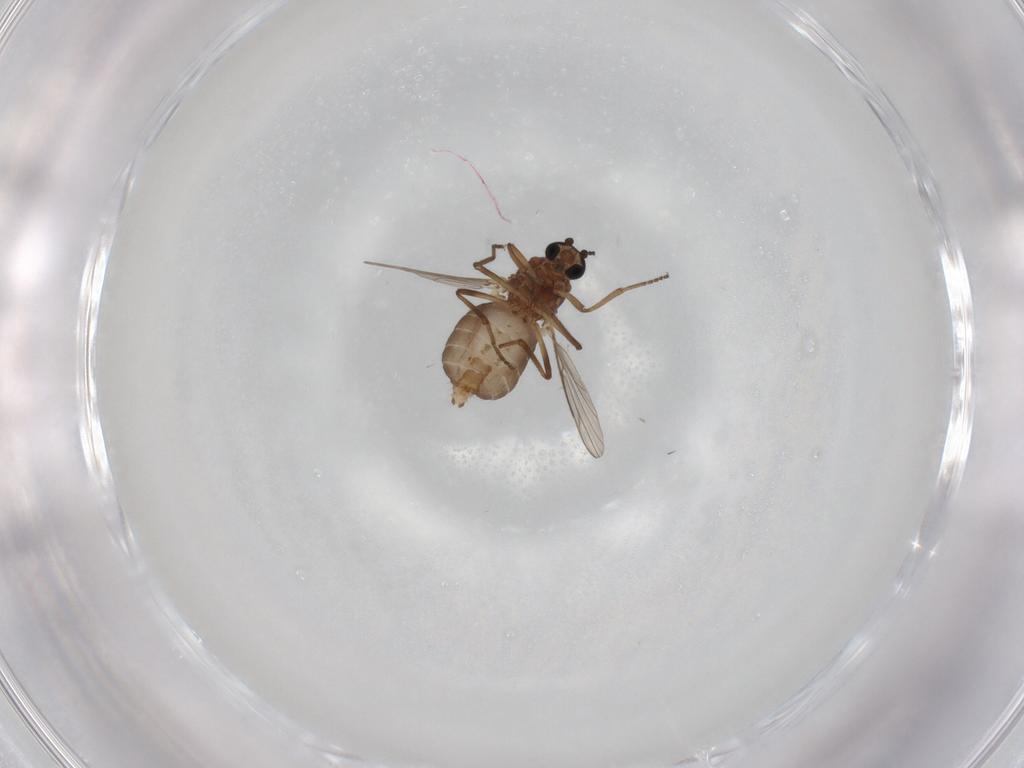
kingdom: Animalia
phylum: Arthropoda
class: Insecta
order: Diptera
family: Ceratopogonidae
